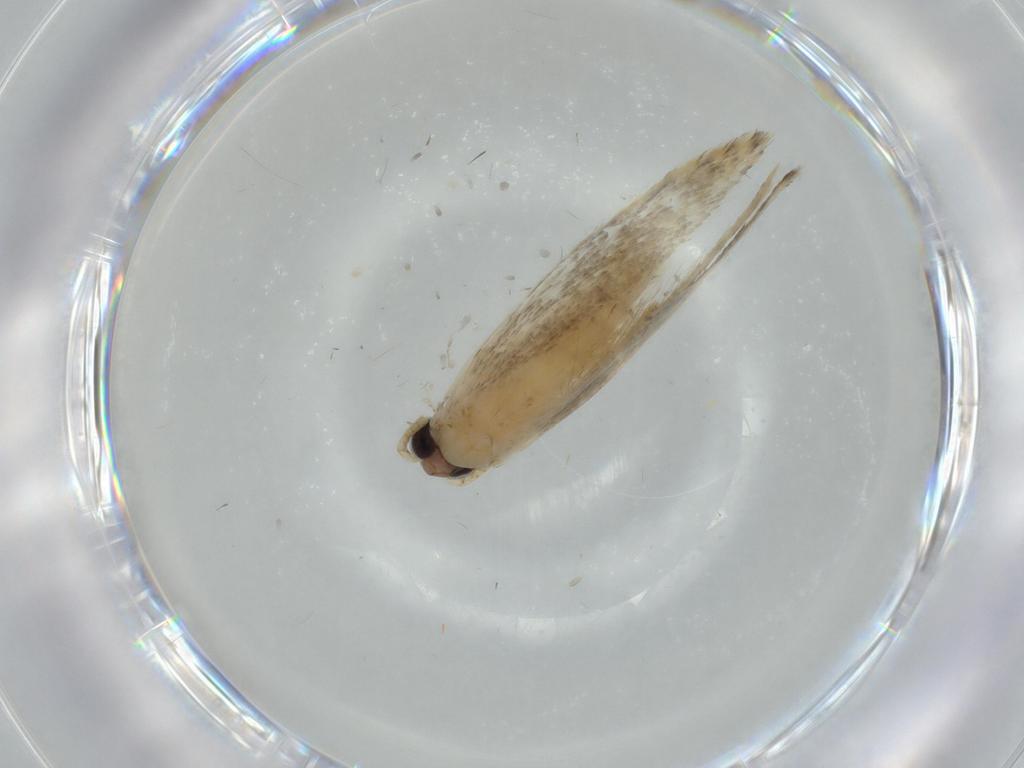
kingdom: Animalia
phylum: Arthropoda
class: Insecta
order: Lepidoptera
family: Tineidae
